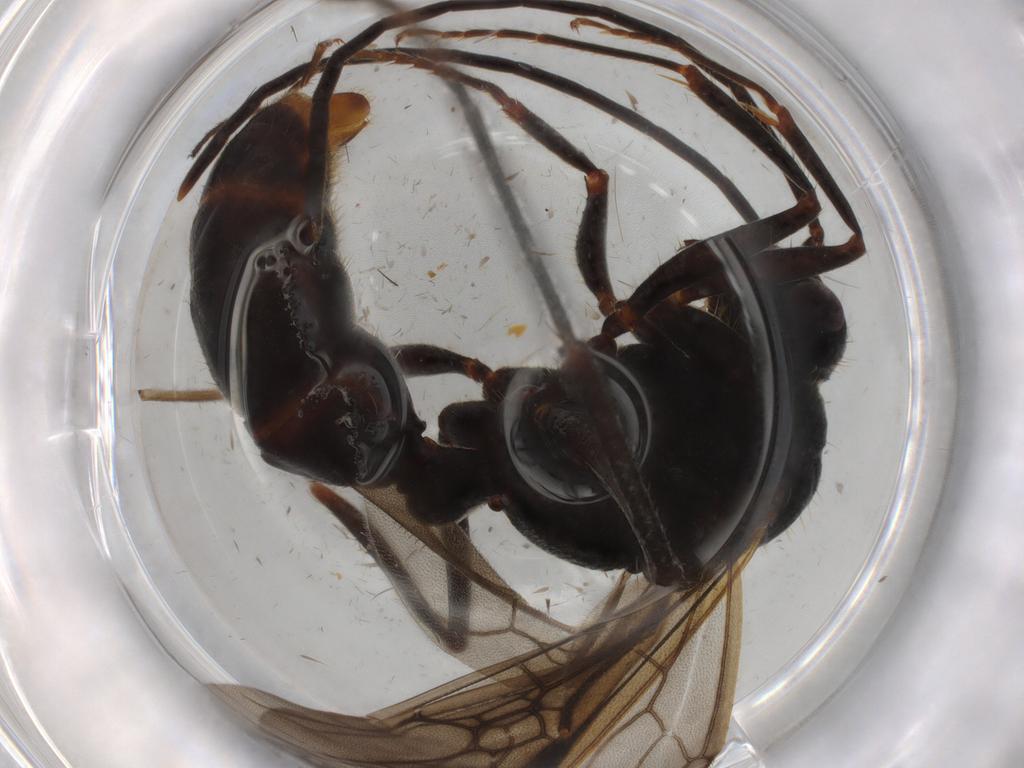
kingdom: Animalia
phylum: Arthropoda
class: Insecta
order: Hymenoptera
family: Formicidae
